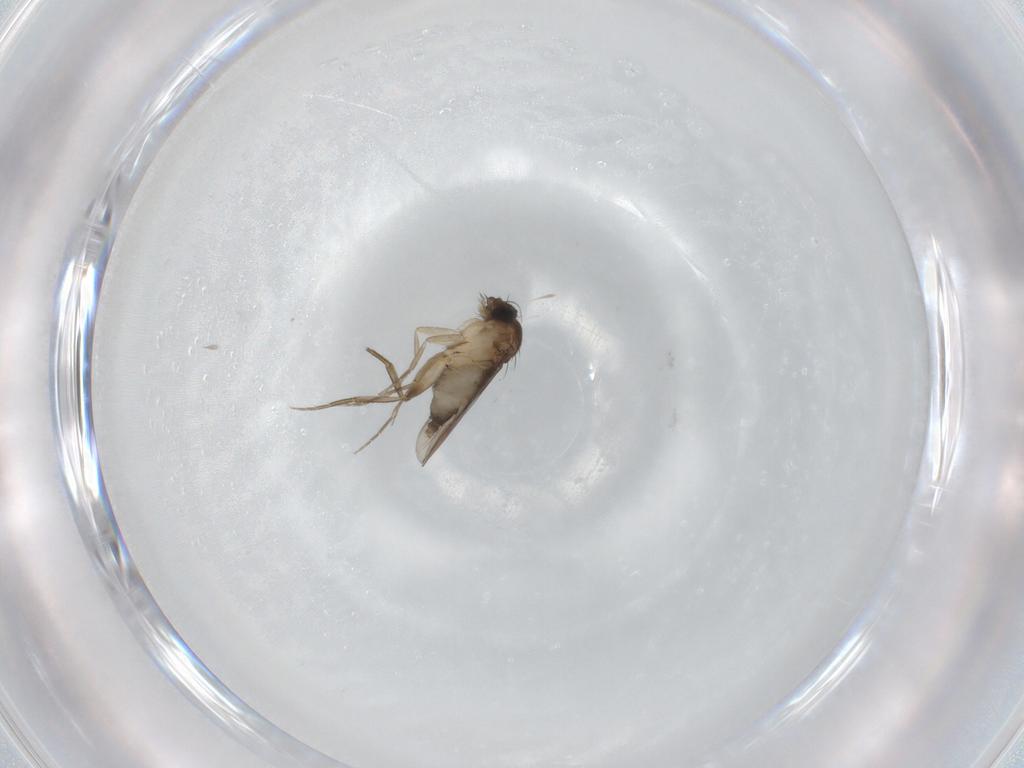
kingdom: Animalia
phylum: Arthropoda
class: Insecta
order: Diptera
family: Phoridae
